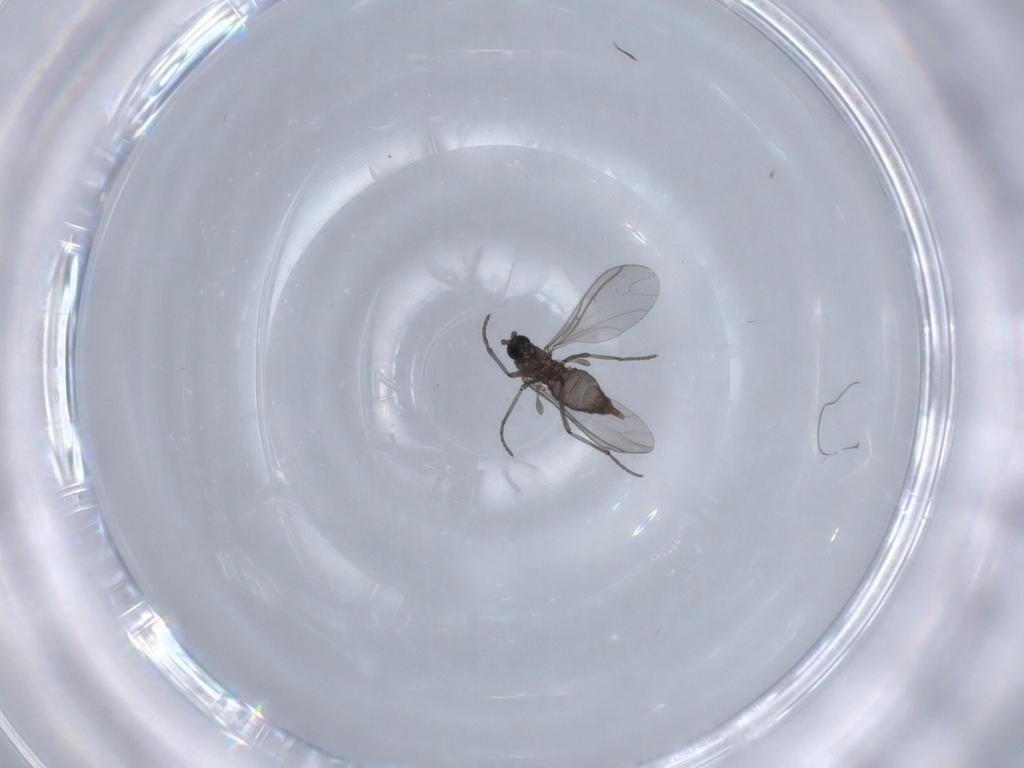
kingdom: Animalia
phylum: Arthropoda
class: Insecta
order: Diptera
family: Sciaridae
